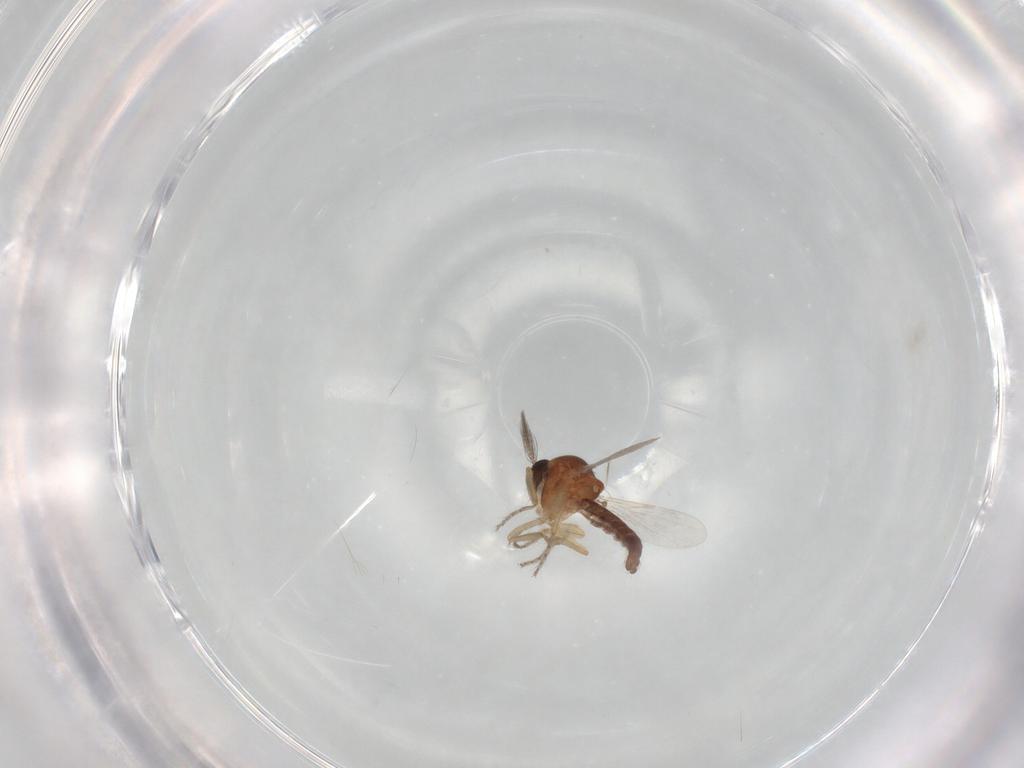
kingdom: Animalia
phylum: Arthropoda
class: Insecta
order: Diptera
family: Ceratopogonidae
